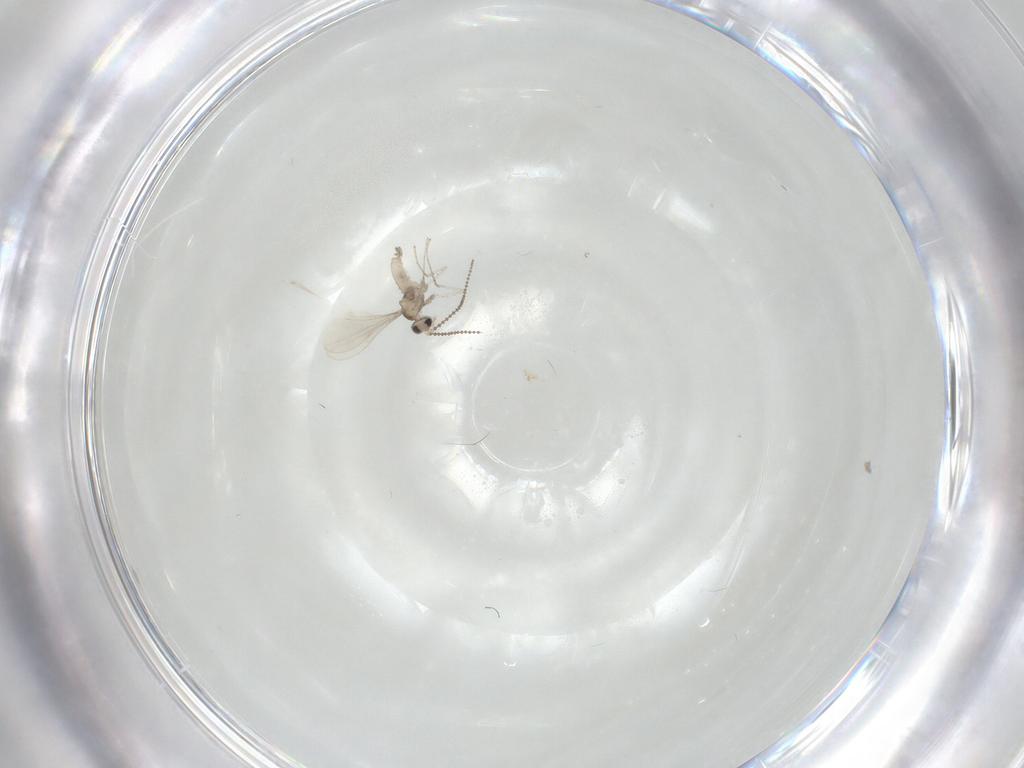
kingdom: Animalia
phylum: Arthropoda
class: Insecta
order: Diptera
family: Cecidomyiidae
